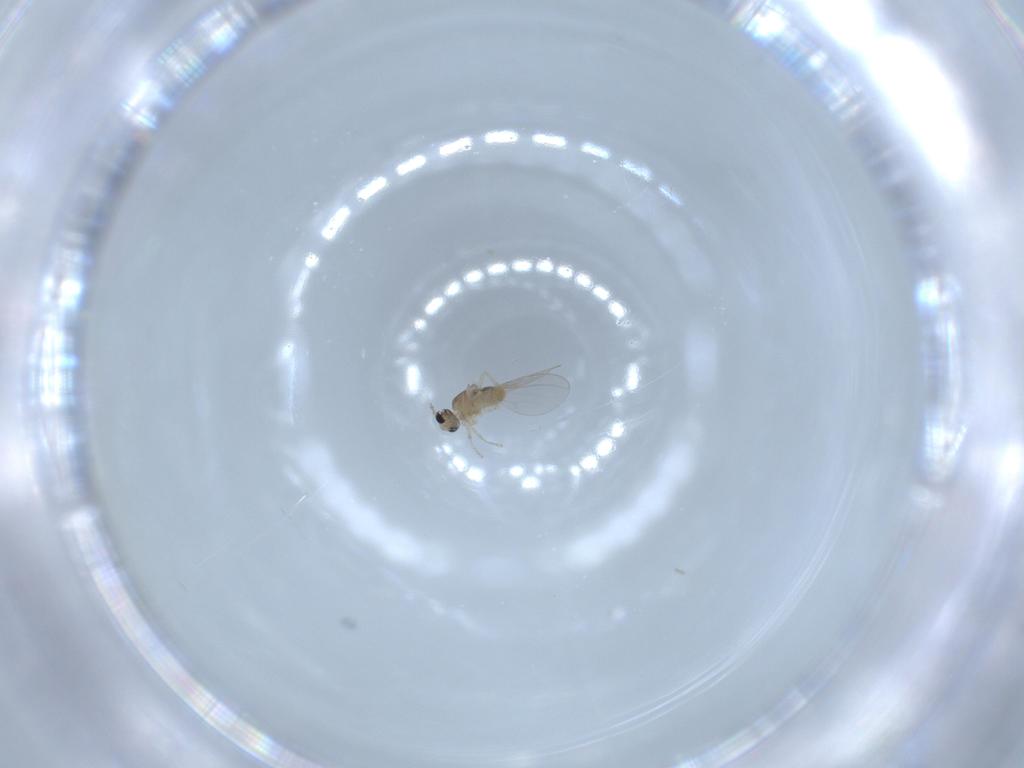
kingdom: Animalia
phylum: Arthropoda
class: Insecta
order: Diptera
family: Cecidomyiidae
